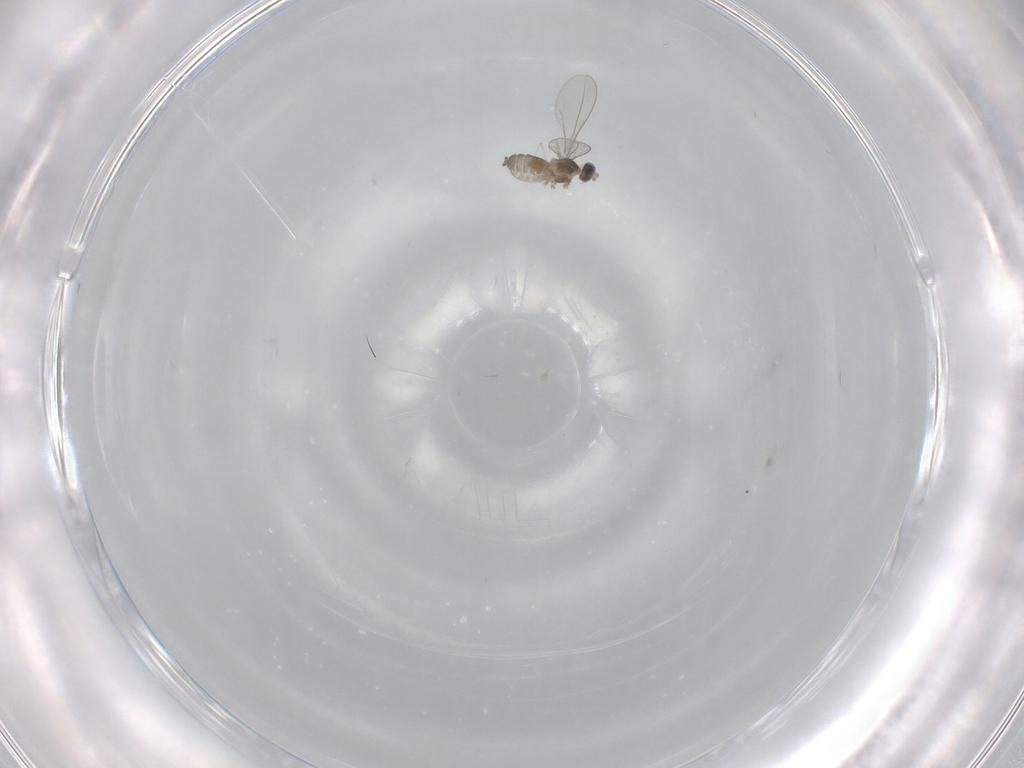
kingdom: Animalia
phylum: Arthropoda
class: Insecta
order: Diptera
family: Cecidomyiidae
